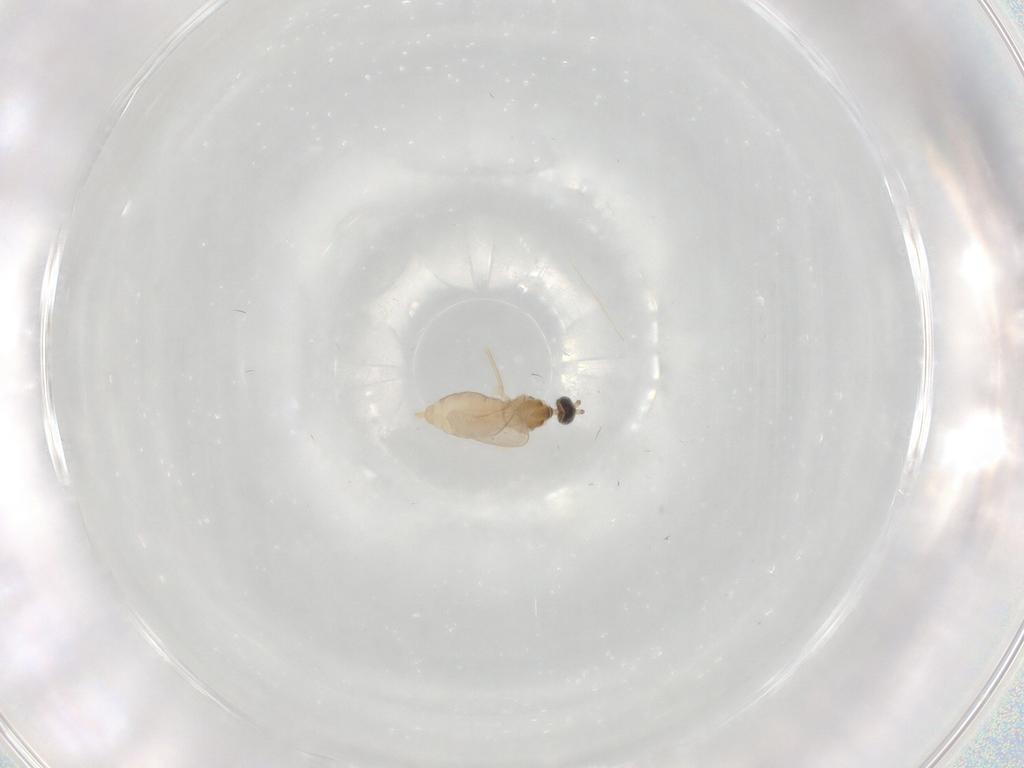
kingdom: Animalia
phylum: Arthropoda
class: Insecta
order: Diptera
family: Cecidomyiidae
